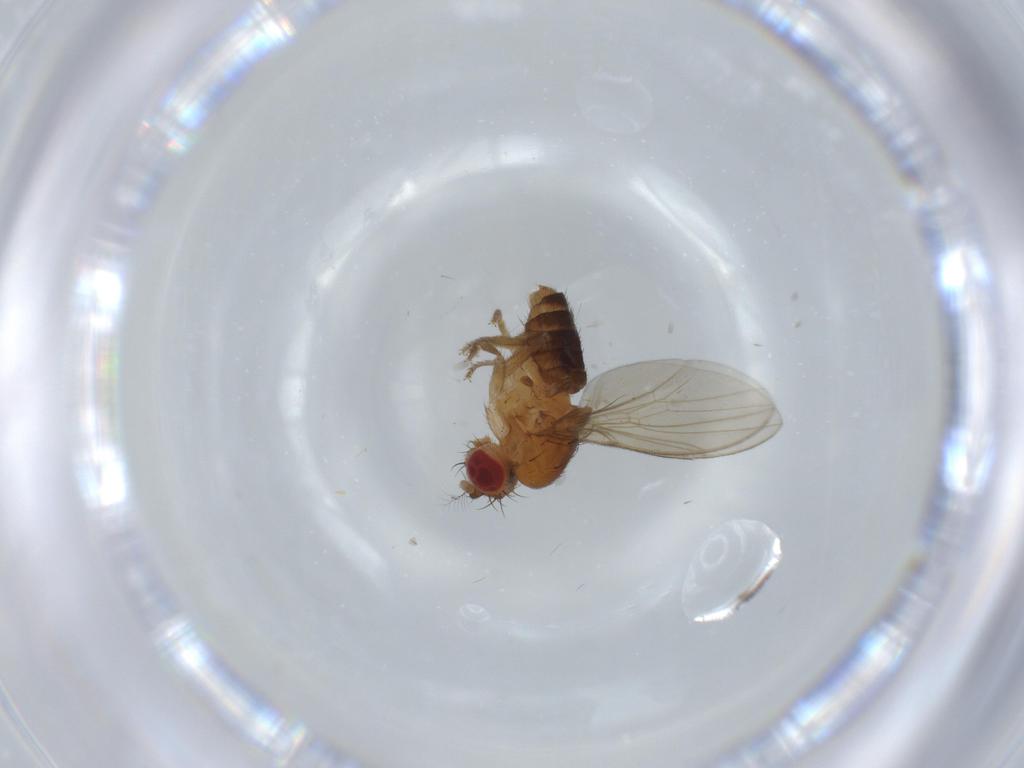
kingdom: Animalia
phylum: Arthropoda
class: Insecta
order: Diptera
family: Drosophilidae
